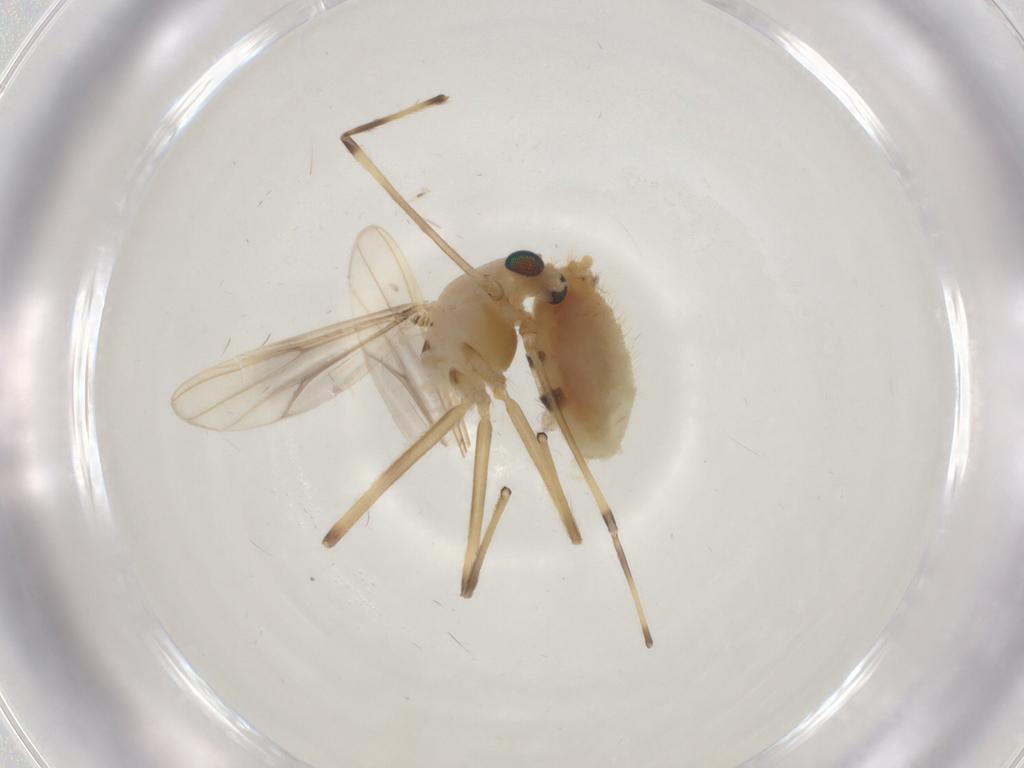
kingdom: Animalia
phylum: Arthropoda
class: Insecta
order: Diptera
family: Chironomidae
